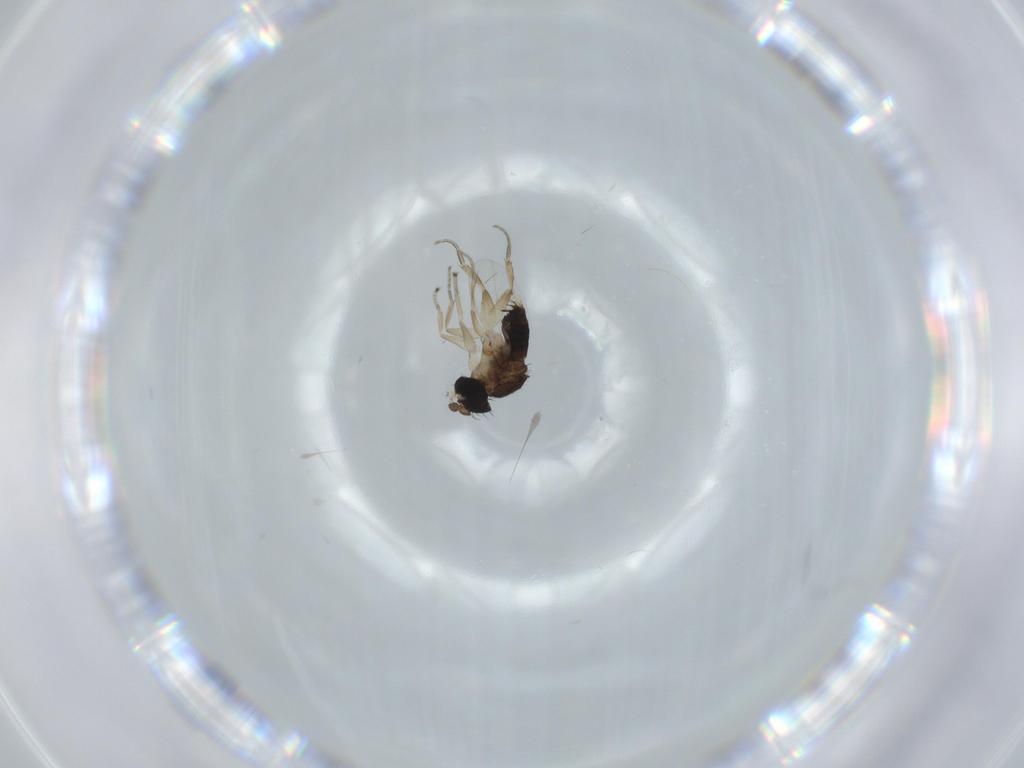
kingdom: Animalia
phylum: Arthropoda
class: Insecta
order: Diptera
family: Phoridae
